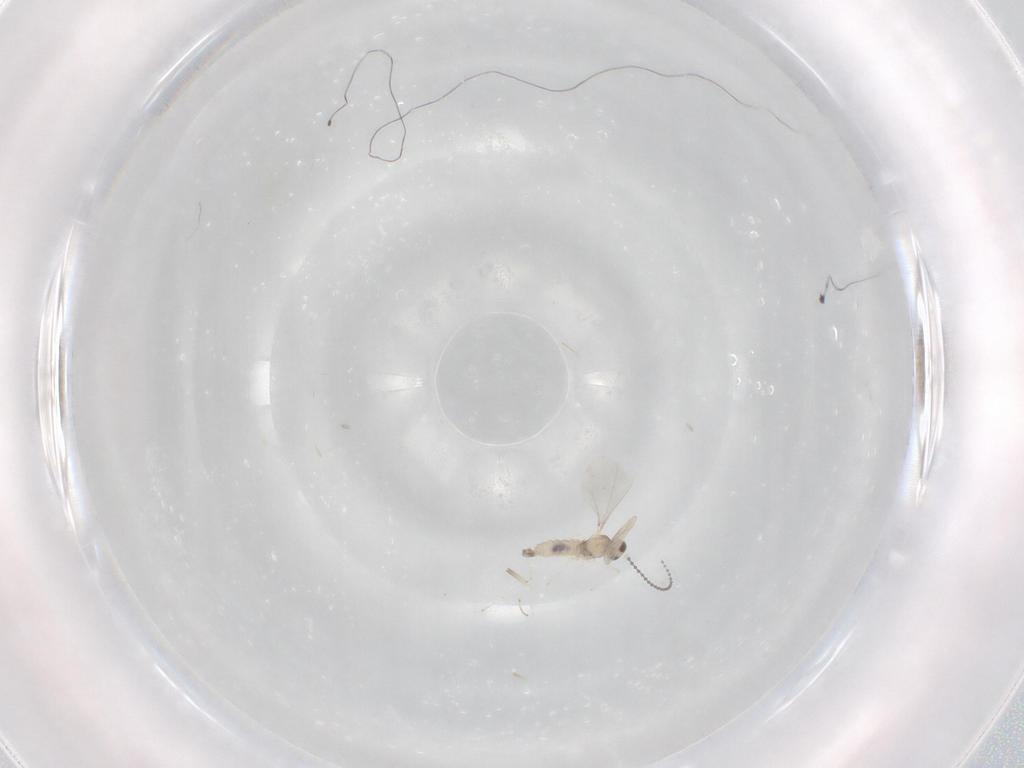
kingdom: Animalia
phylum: Arthropoda
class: Insecta
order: Diptera
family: Cecidomyiidae
